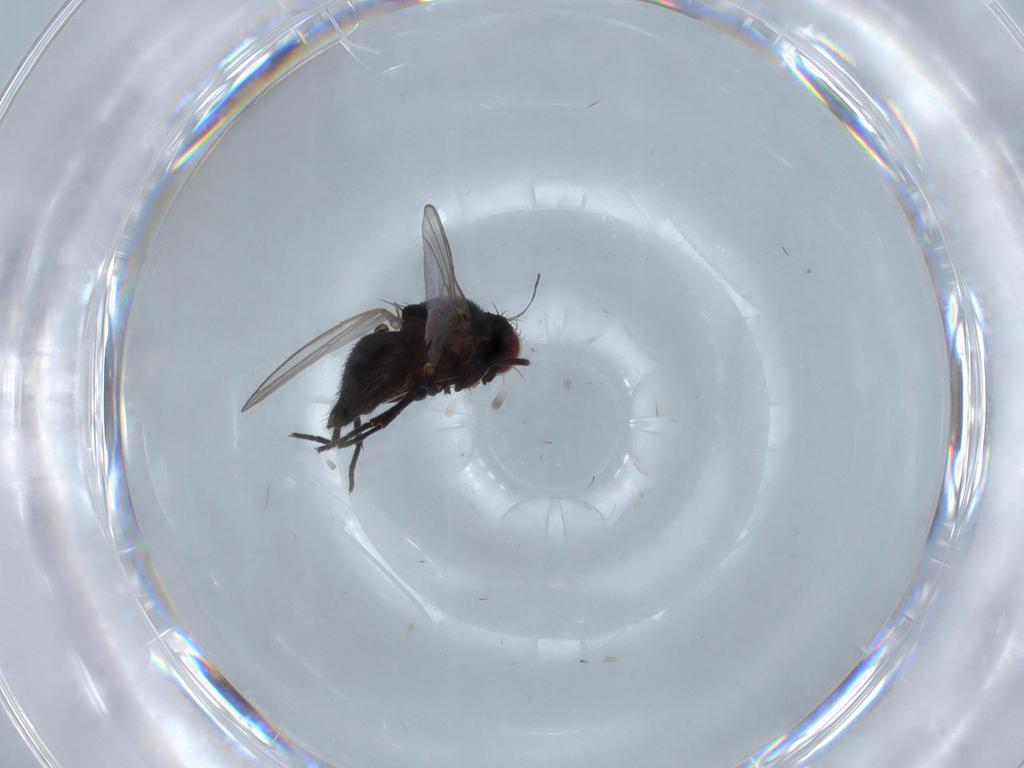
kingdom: Animalia
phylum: Arthropoda
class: Insecta
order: Diptera
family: Agromyzidae
